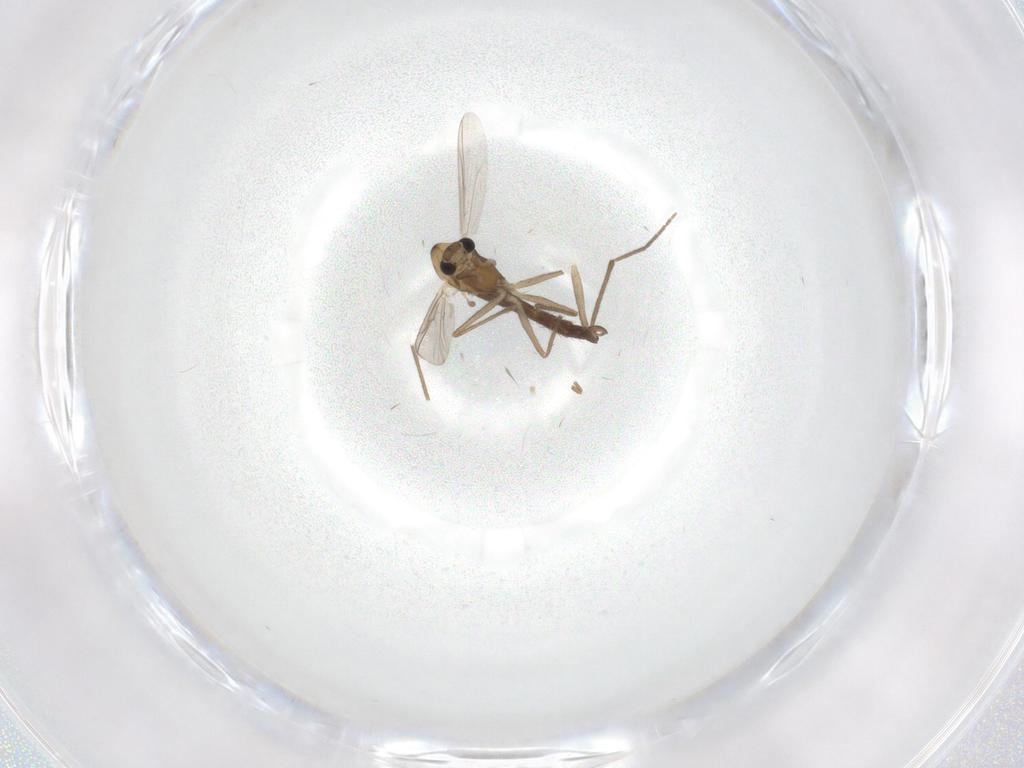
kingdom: Animalia
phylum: Arthropoda
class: Insecta
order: Diptera
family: Chironomidae
